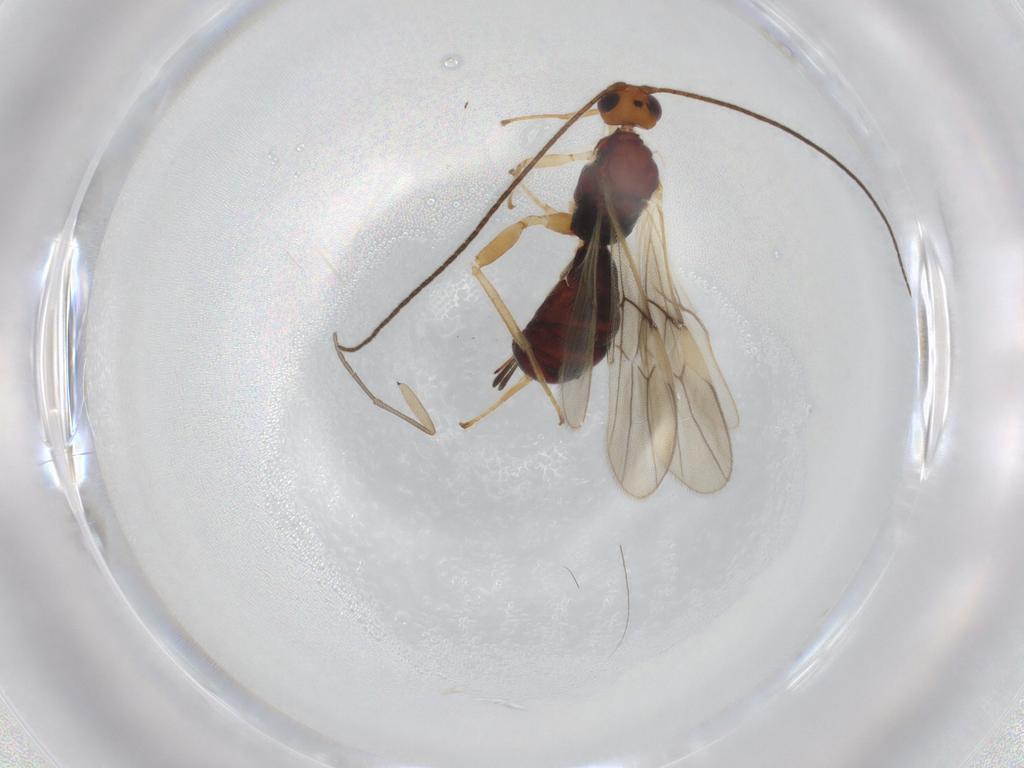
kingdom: Animalia
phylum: Arthropoda
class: Insecta
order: Hymenoptera
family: Braconidae
